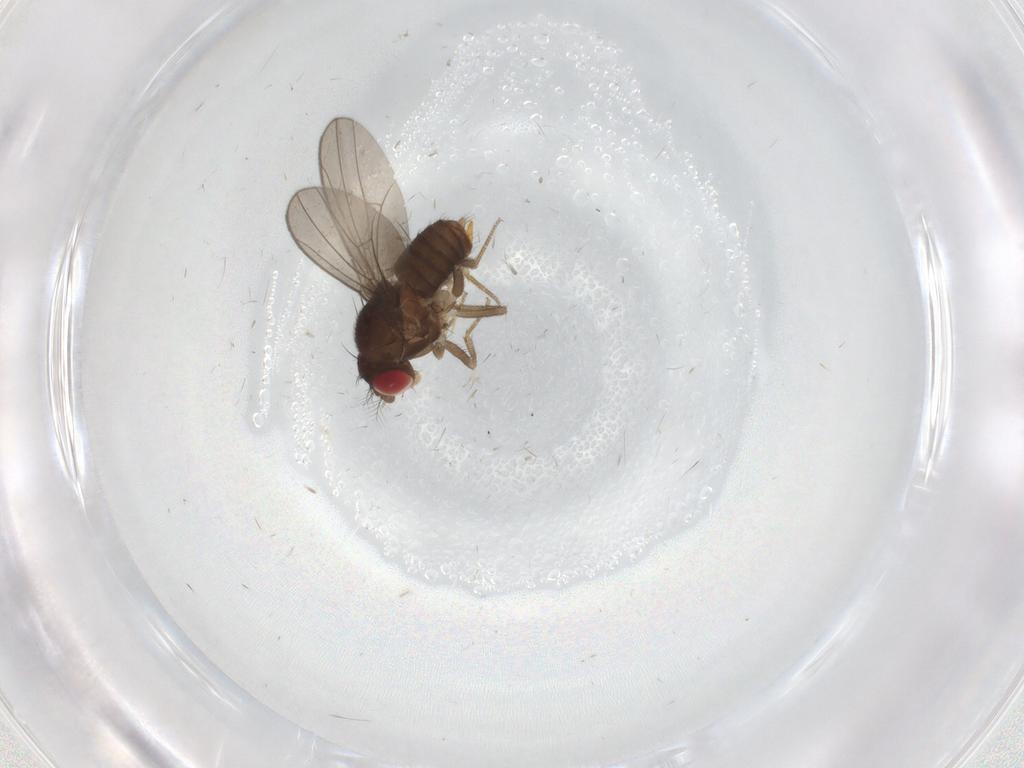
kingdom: Animalia
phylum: Arthropoda
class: Insecta
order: Diptera
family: Drosophilidae
